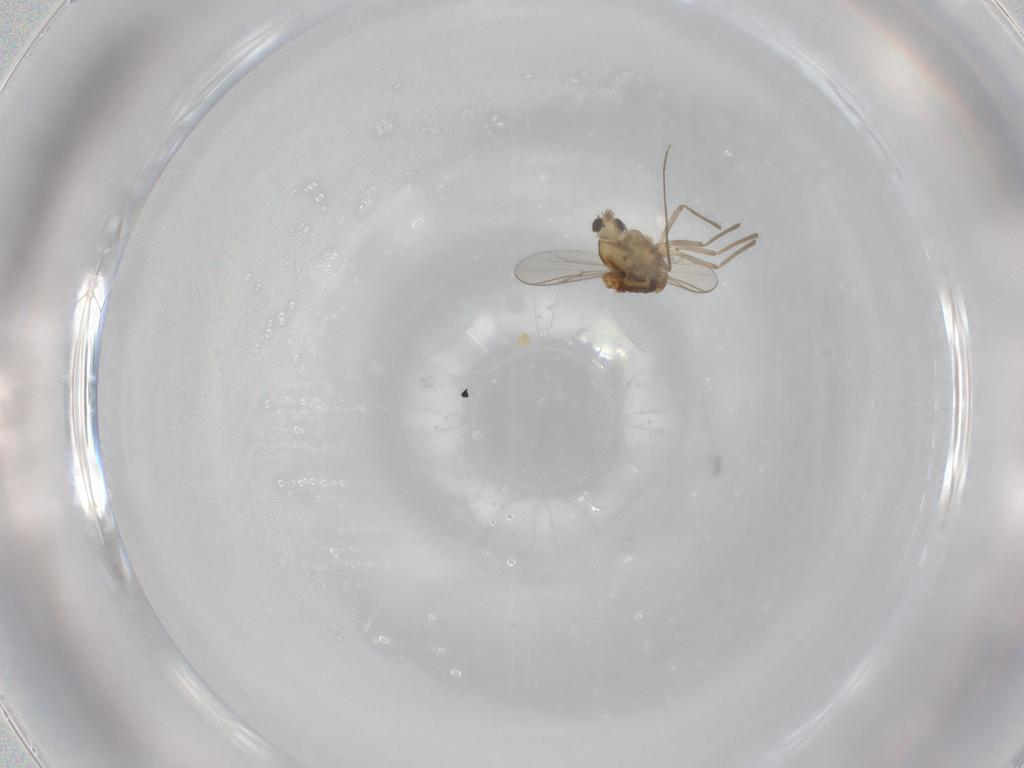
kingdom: Animalia
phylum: Arthropoda
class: Insecta
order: Diptera
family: Chironomidae
